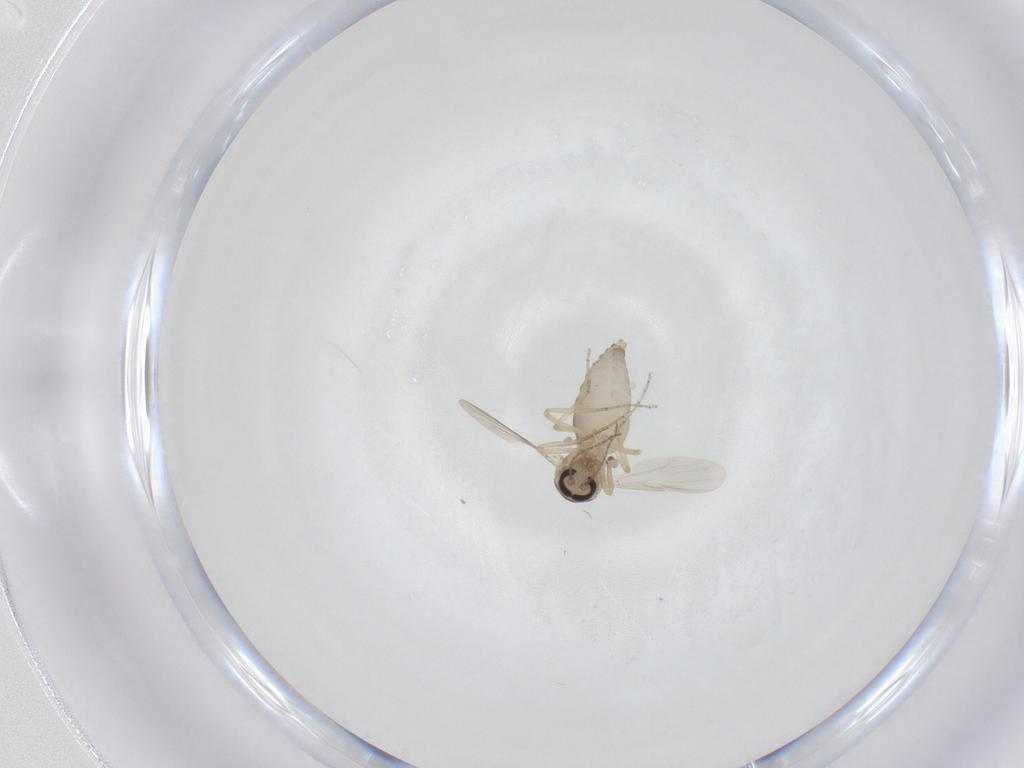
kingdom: Animalia
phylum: Arthropoda
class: Insecta
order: Diptera
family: Ceratopogonidae
